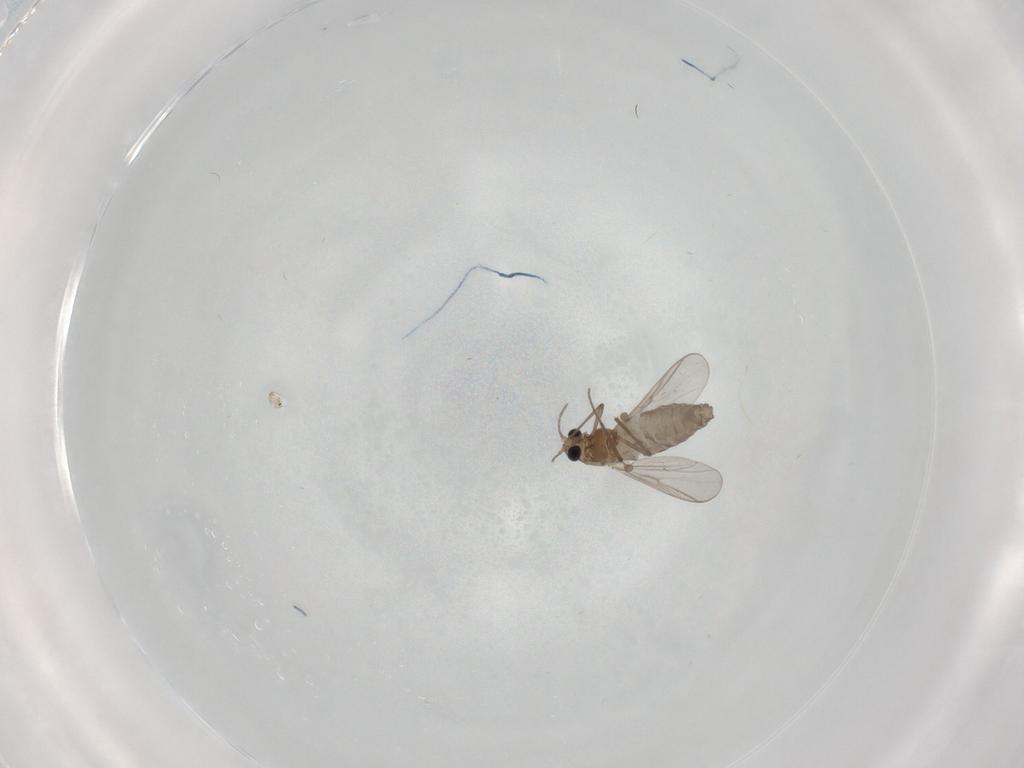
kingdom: Animalia
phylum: Arthropoda
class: Insecta
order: Diptera
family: Chironomidae
